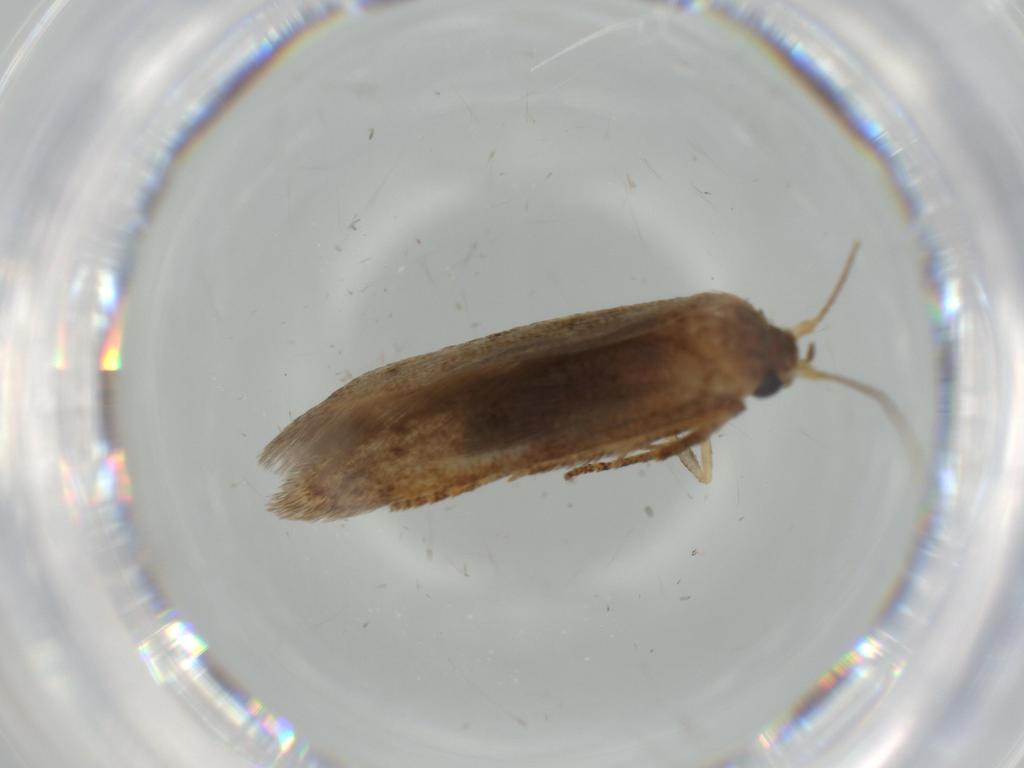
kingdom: Animalia
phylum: Arthropoda
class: Insecta
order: Lepidoptera
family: Blastobasidae
